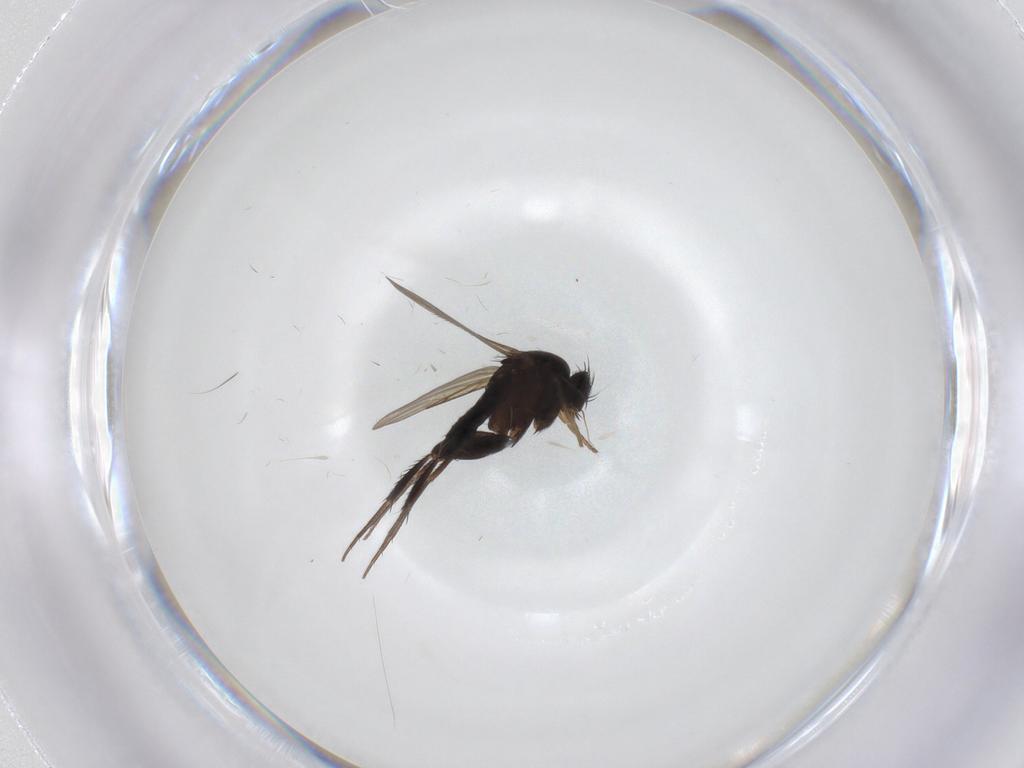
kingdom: Animalia
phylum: Arthropoda
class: Insecta
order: Diptera
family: Phoridae
